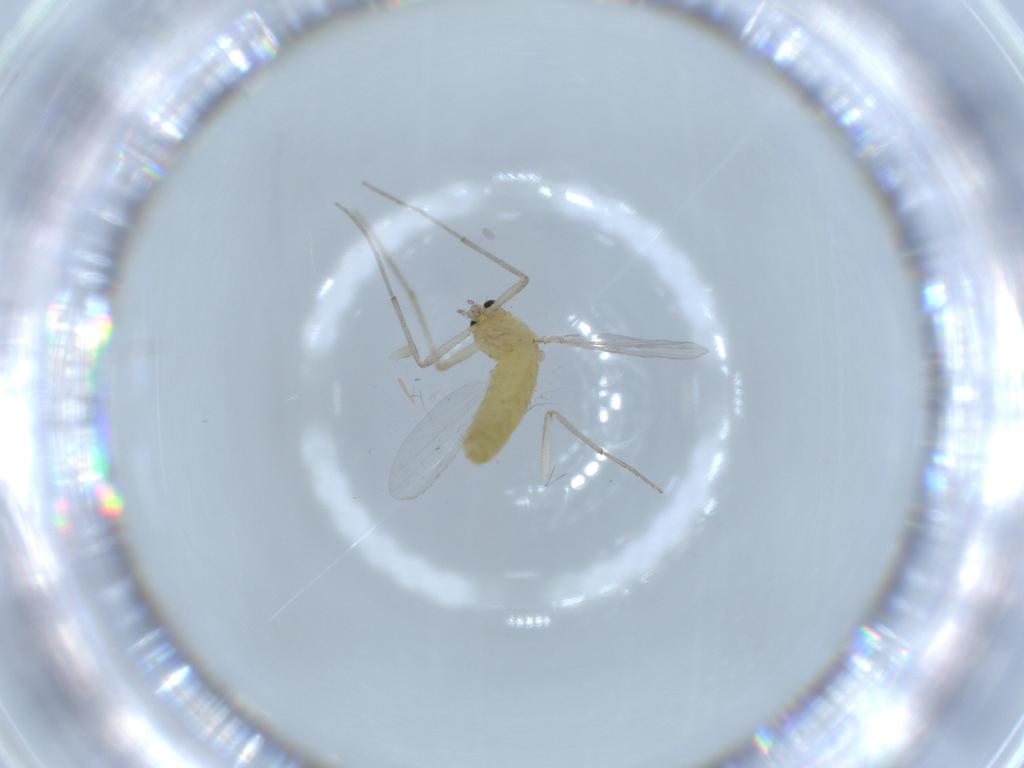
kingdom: Animalia
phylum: Arthropoda
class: Insecta
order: Diptera
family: Chironomidae
